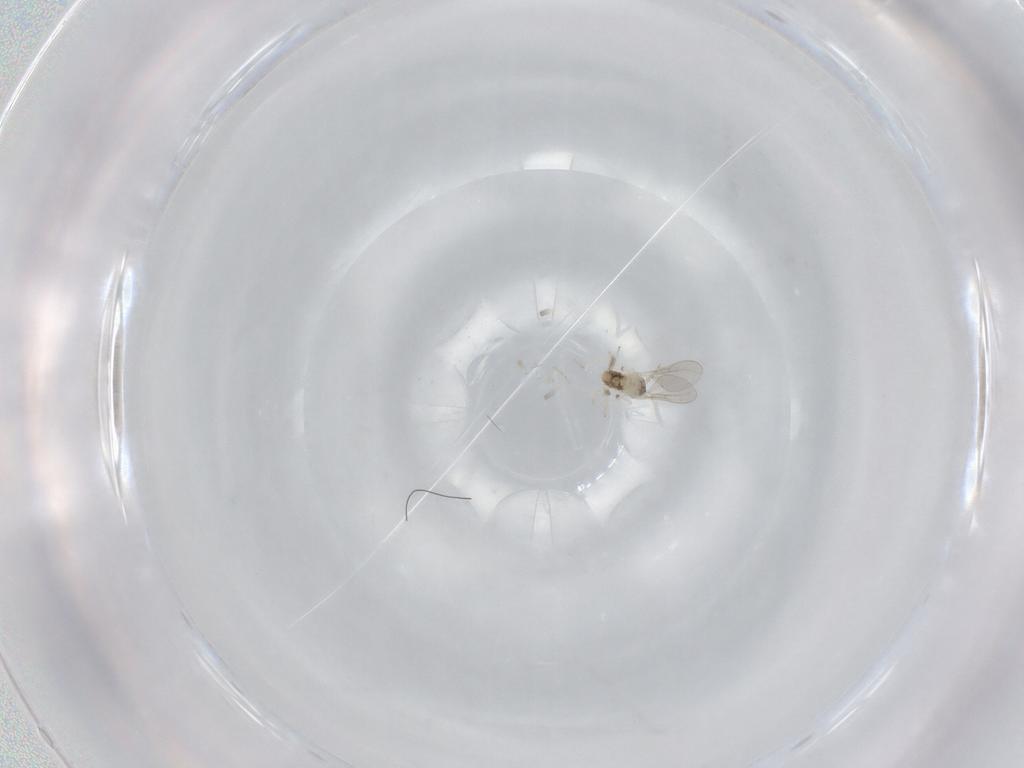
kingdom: Animalia
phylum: Arthropoda
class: Insecta
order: Diptera
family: Cecidomyiidae
